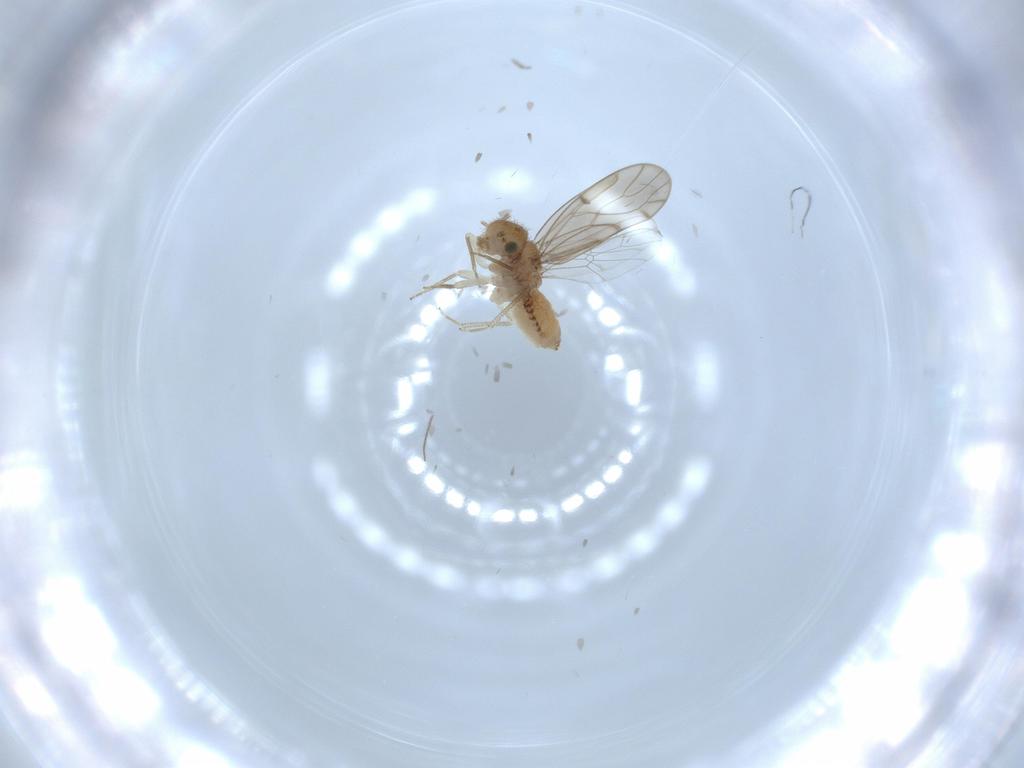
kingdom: Animalia
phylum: Arthropoda
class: Insecta
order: Psocodea
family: Ectopsocidae
